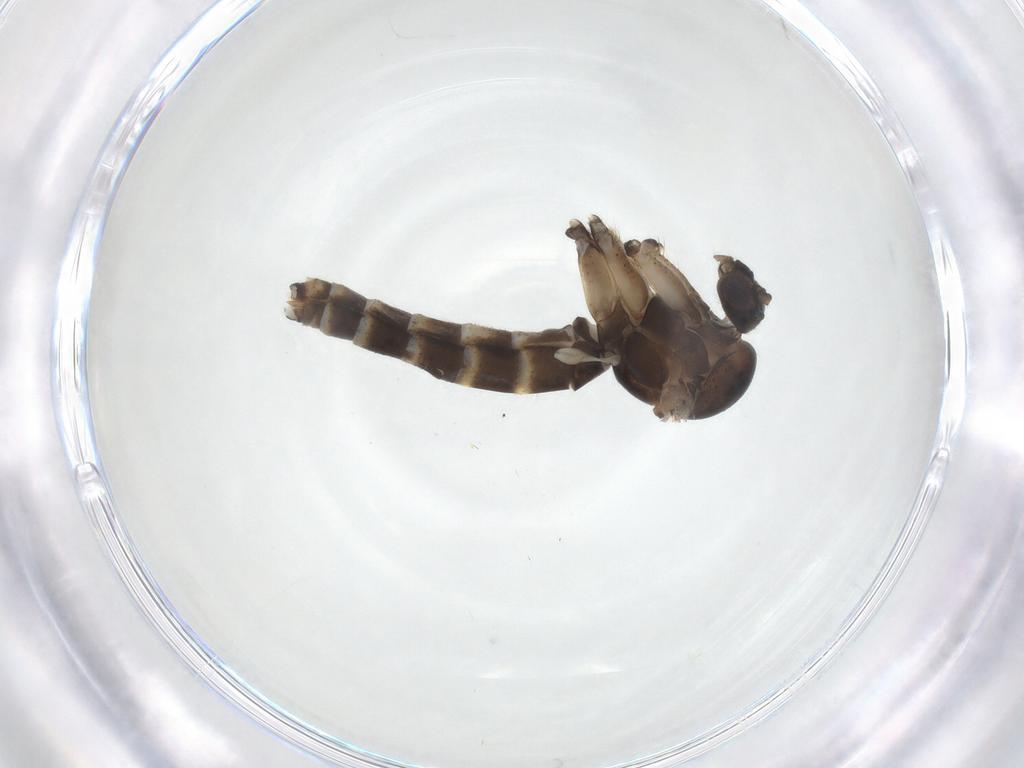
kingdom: Animalia
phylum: Arthropoda
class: Insecta
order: Diptera
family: Mycetophilidae
